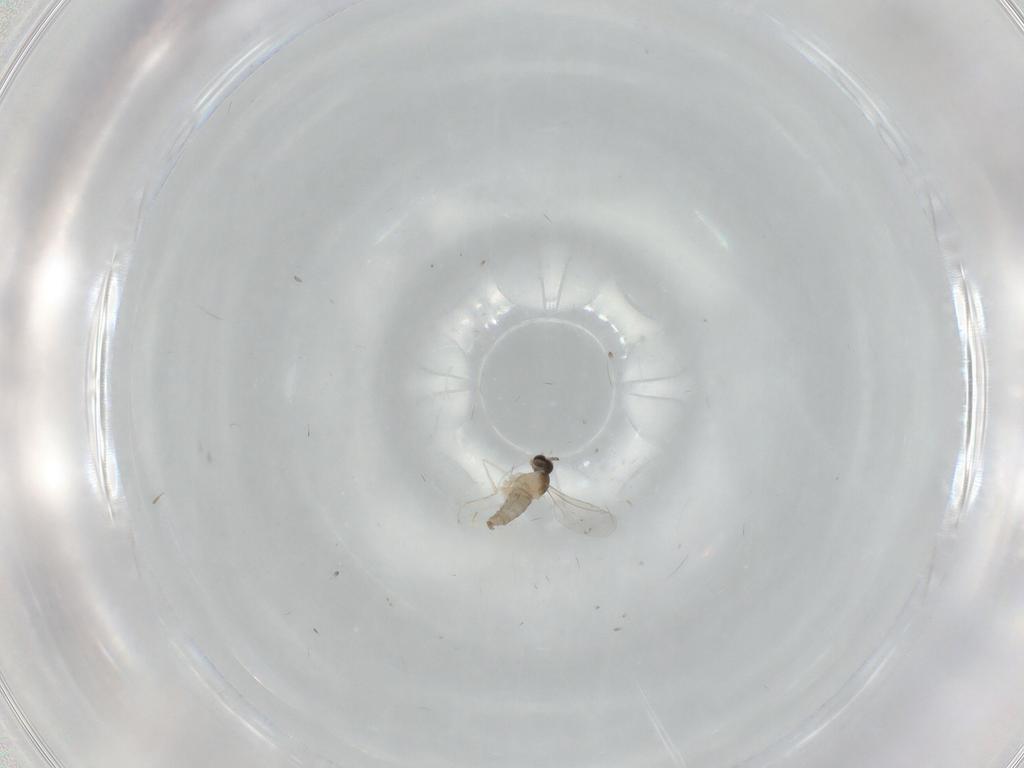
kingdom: Animalia
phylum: Arthropoda
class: Insecta
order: Diptera
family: Cecidomyiidae
